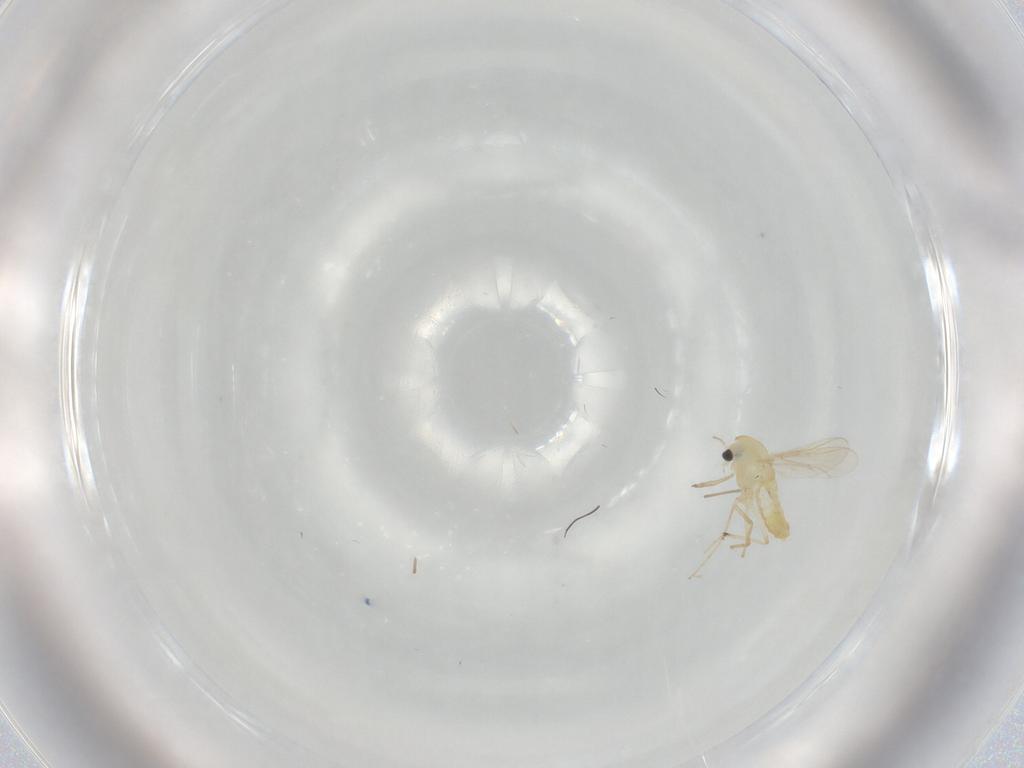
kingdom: Animalia
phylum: Arthropoda
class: Insecta
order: Diptera
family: Chironomidae
